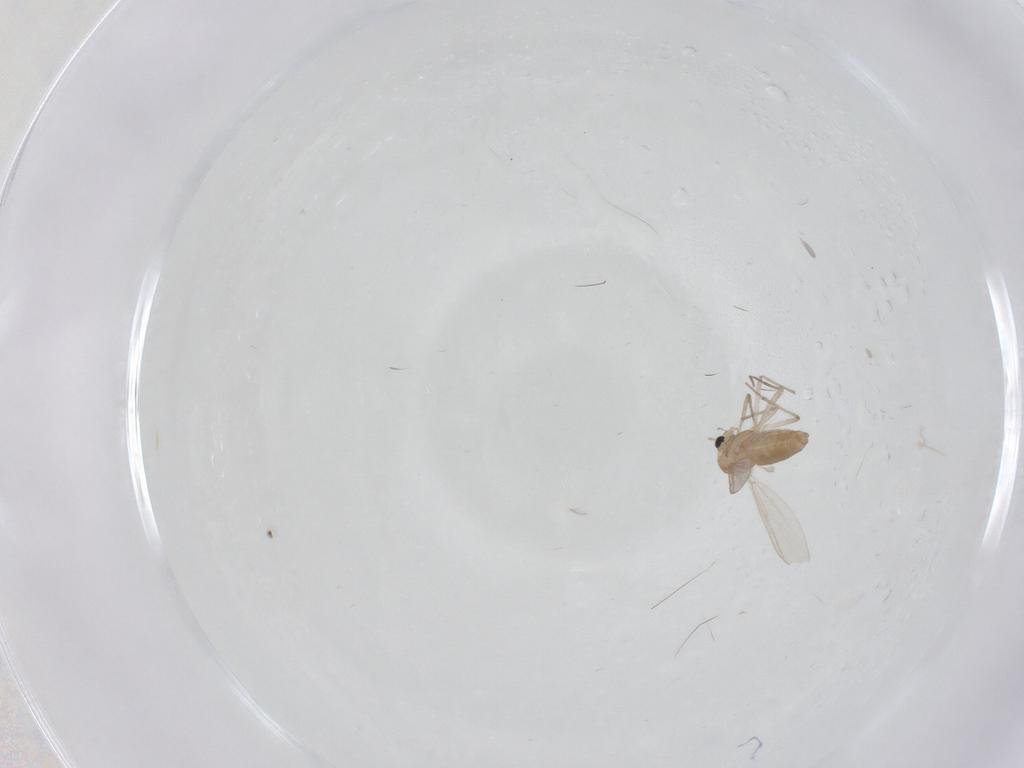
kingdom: Animalia
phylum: Arthropoda
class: Insecta
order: Diptera
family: Chironomidae
